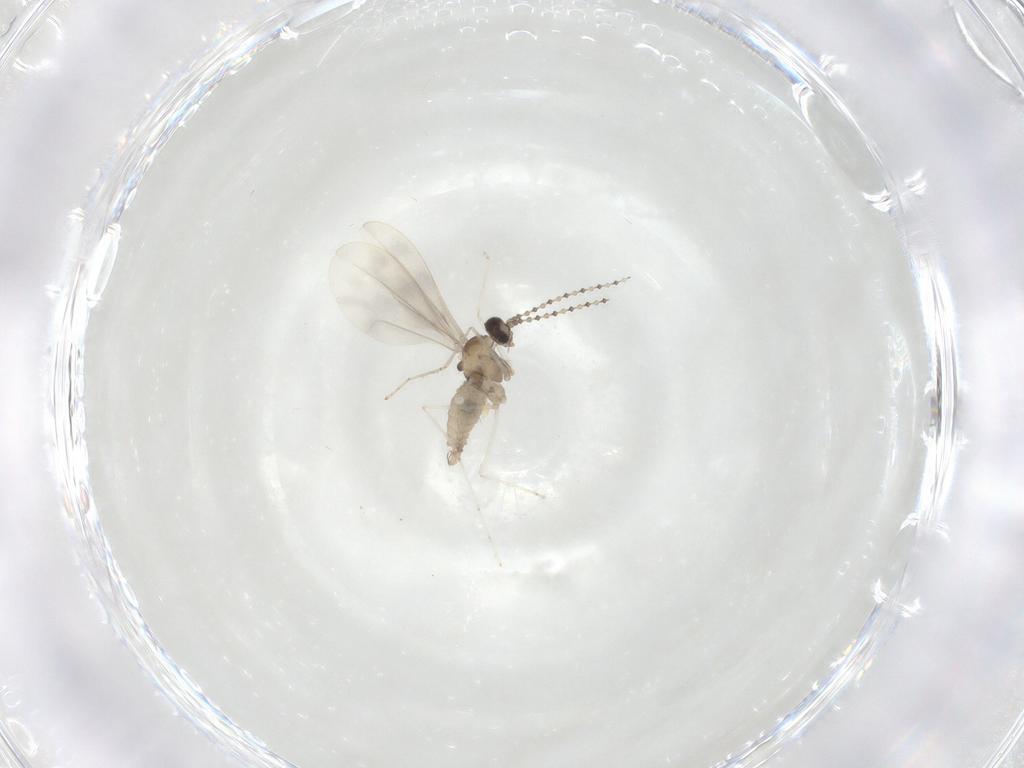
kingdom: Animalia
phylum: Arthropoda
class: Insecta
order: Diptera
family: Cecidomyiidae
